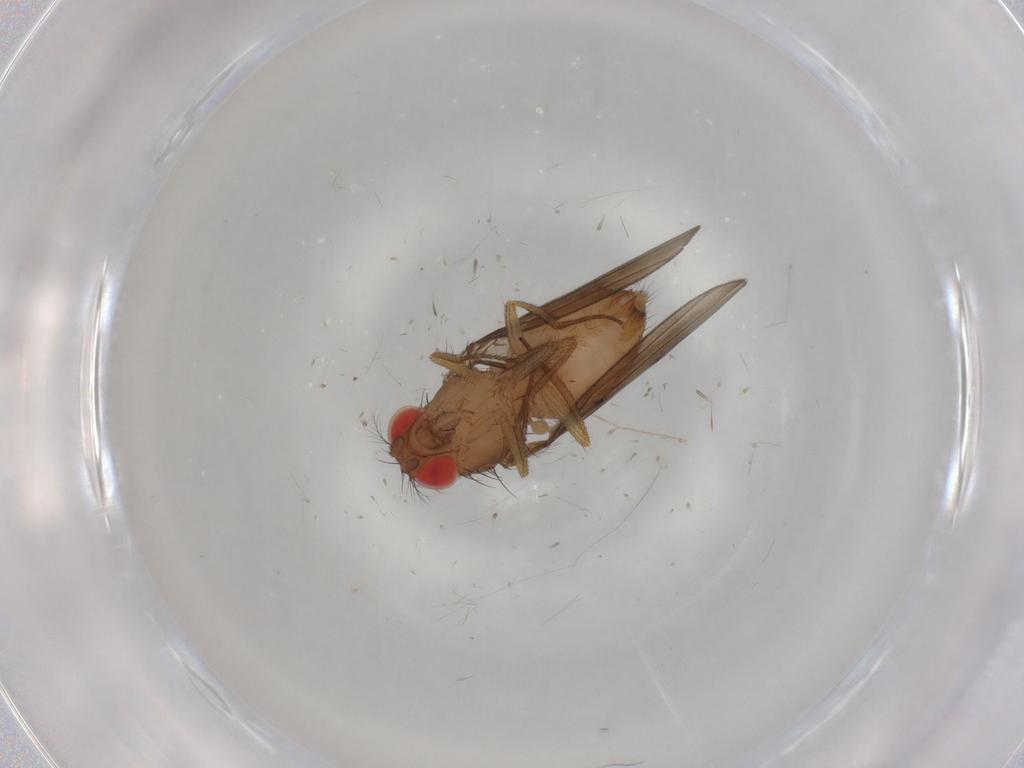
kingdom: Animalia
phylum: Arthropoda
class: Insecta
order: Diptera
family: Drosophilidae
